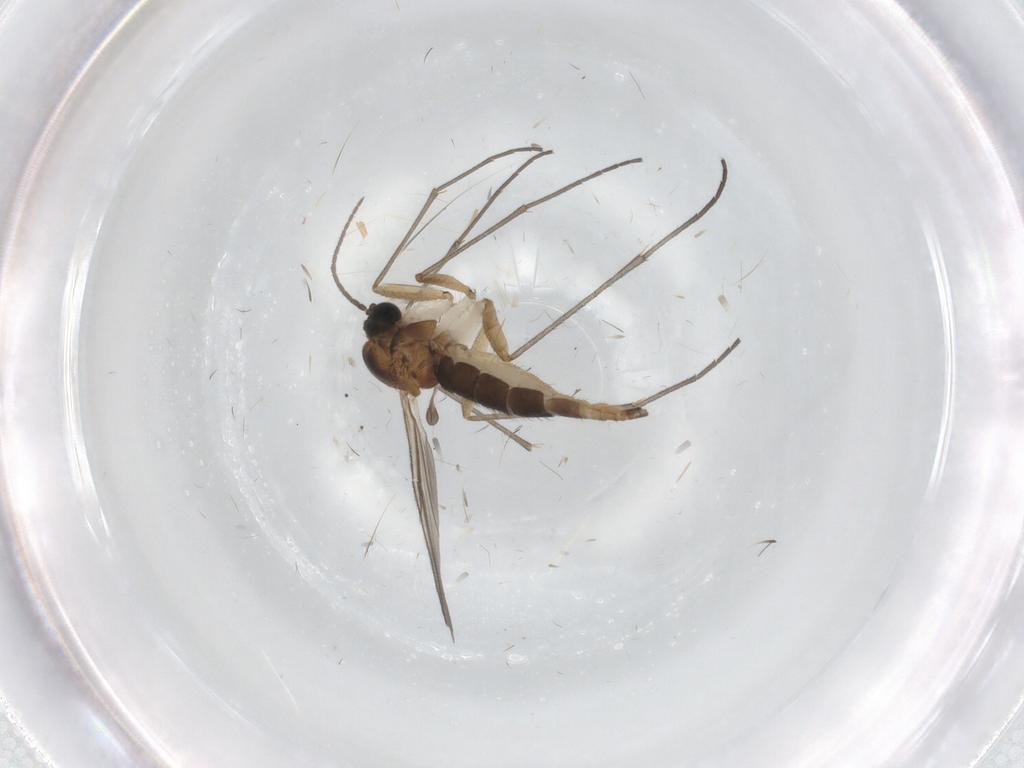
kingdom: Animalia
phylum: Arthropoda
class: Insecta
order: Diptera
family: Sciaridae
